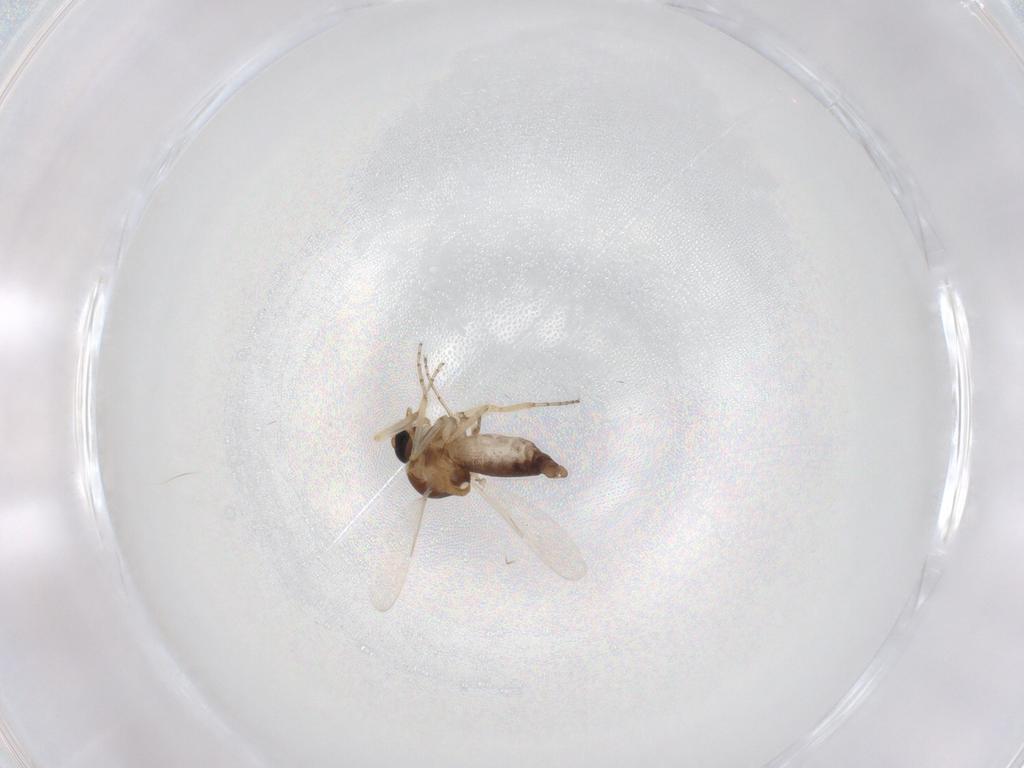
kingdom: Animalia
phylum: Arthropoda
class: Insecta
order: Diptera
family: Ceratopogonidae
